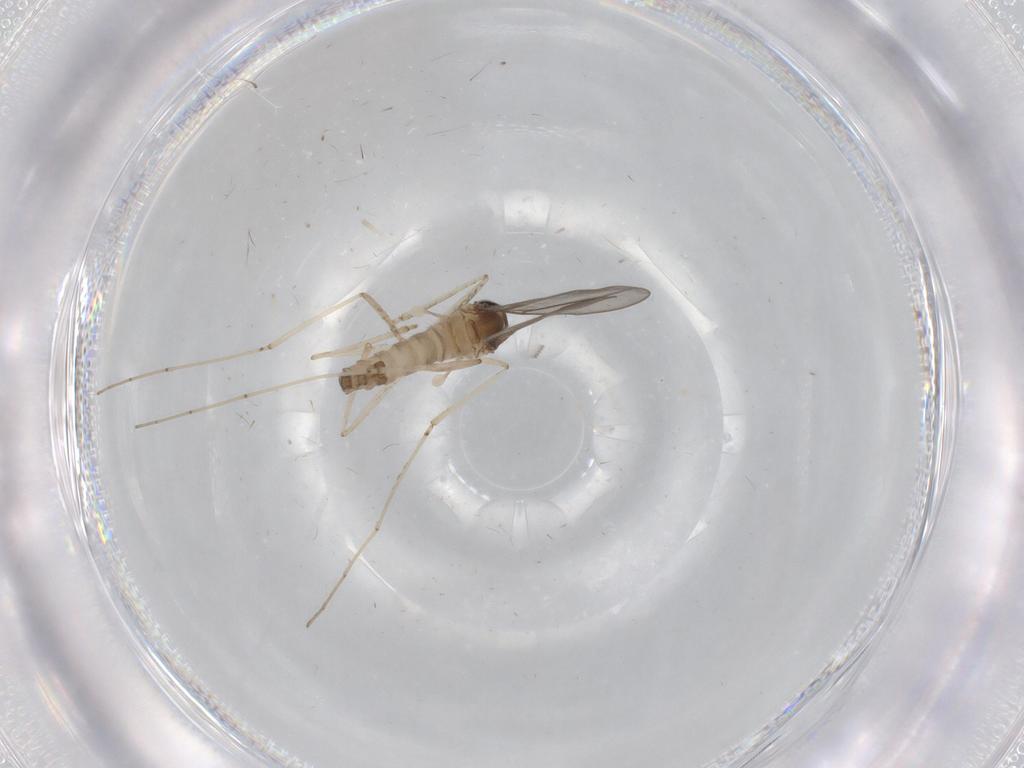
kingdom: Animalia
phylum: Arthropoda
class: Insecta
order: Diptera
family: Cecidomyiidae
